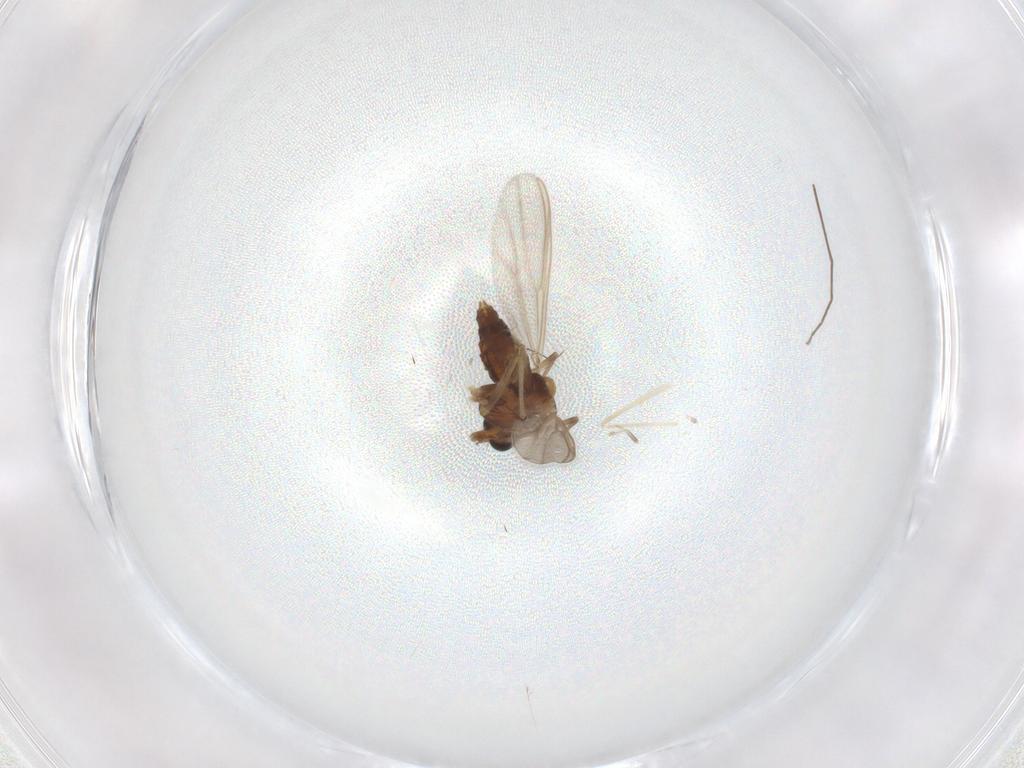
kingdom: Animalia
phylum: Arthropoda
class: Insecta
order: Diptera
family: Chironomidae
